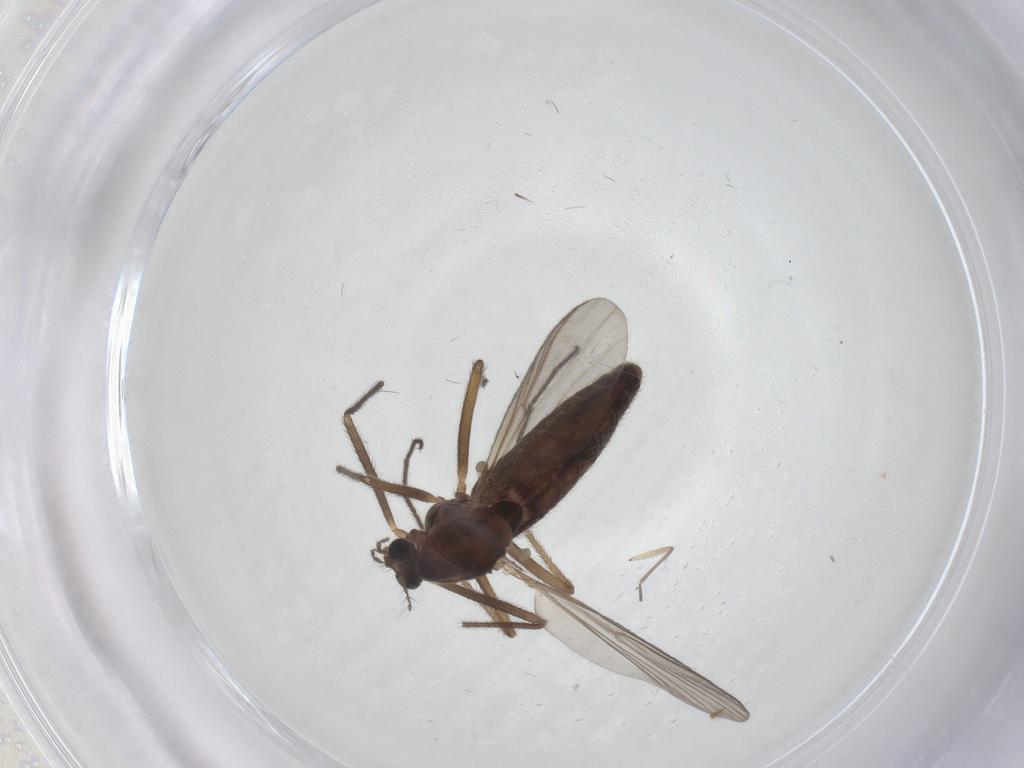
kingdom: Animalia
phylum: Arthropoda
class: Insecta
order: Diptera
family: Chironomidae
